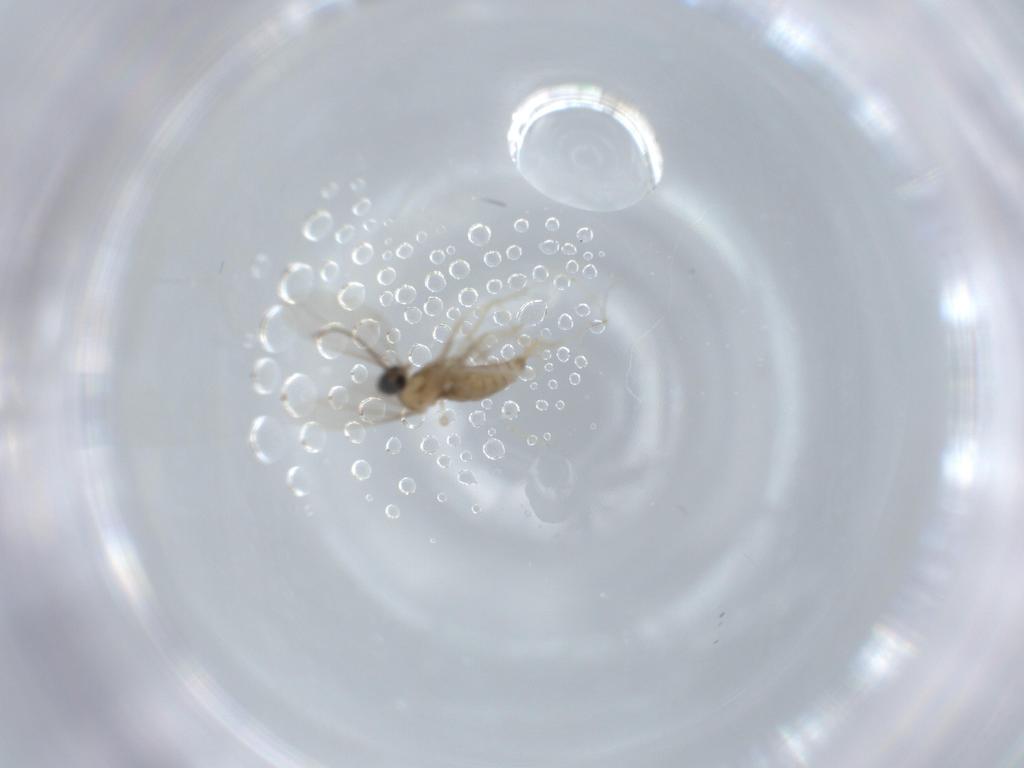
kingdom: Animalia
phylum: Arthropoda
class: Insecta
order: Diptera
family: Cecidomyiidae
